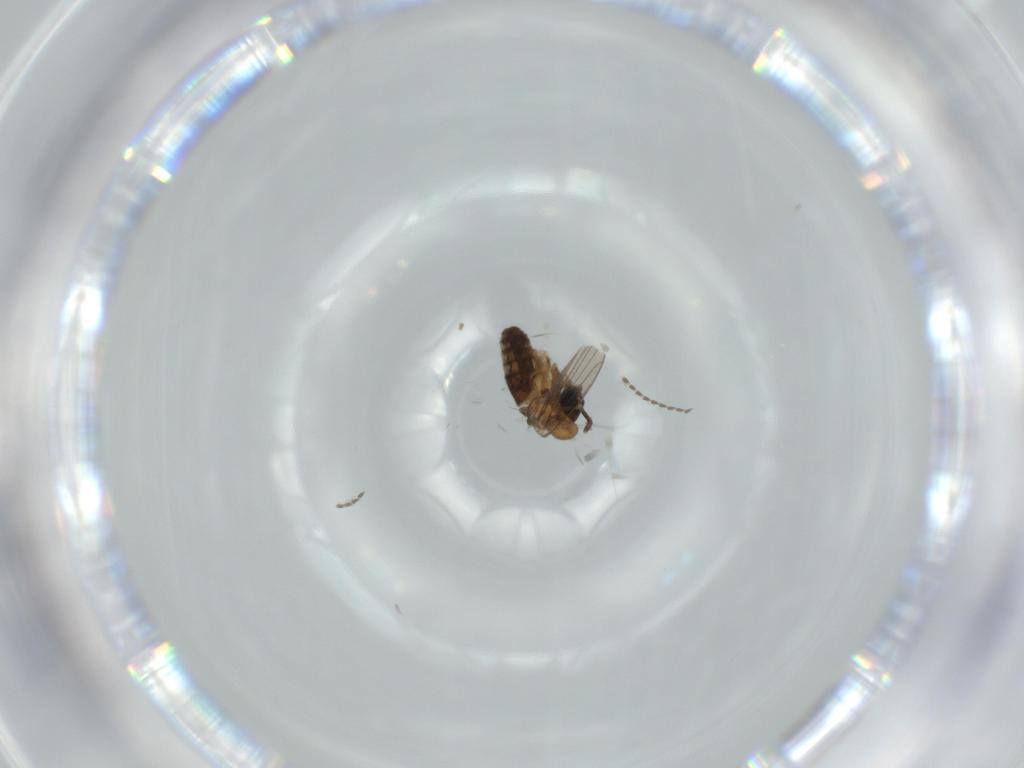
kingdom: Animalia
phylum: Arthropoda
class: Insecta
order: Diptera
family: Psychodidae
